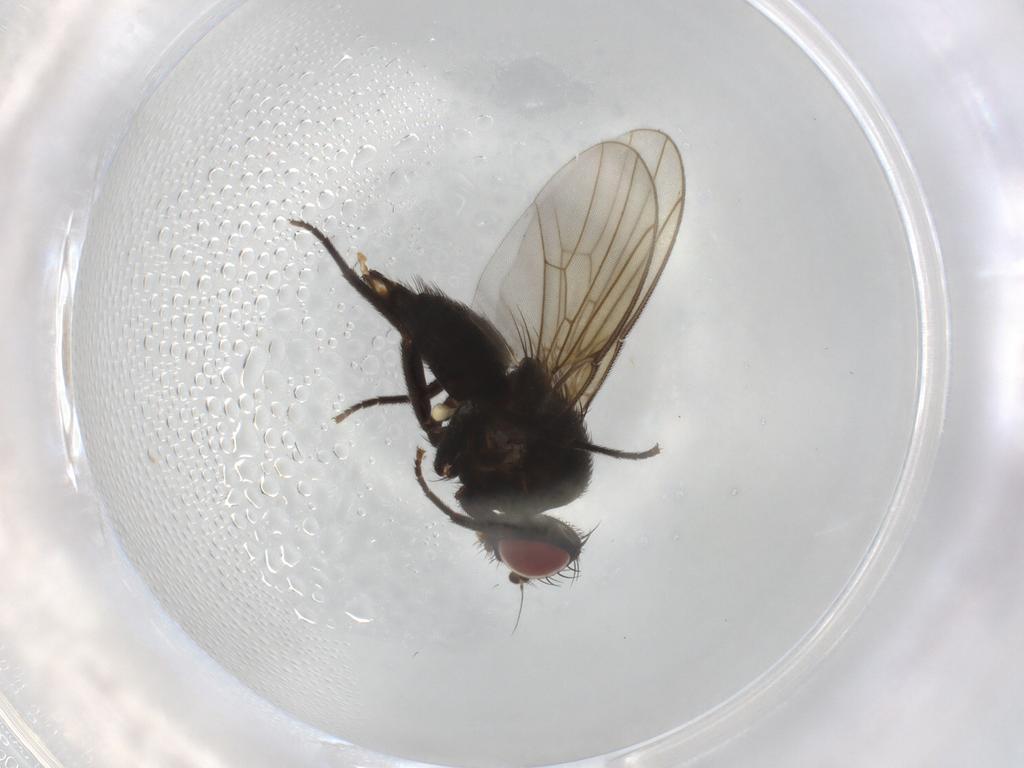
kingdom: Animalia
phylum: Arthropoda
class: Insecta
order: Diptera
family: Agromyzidae
